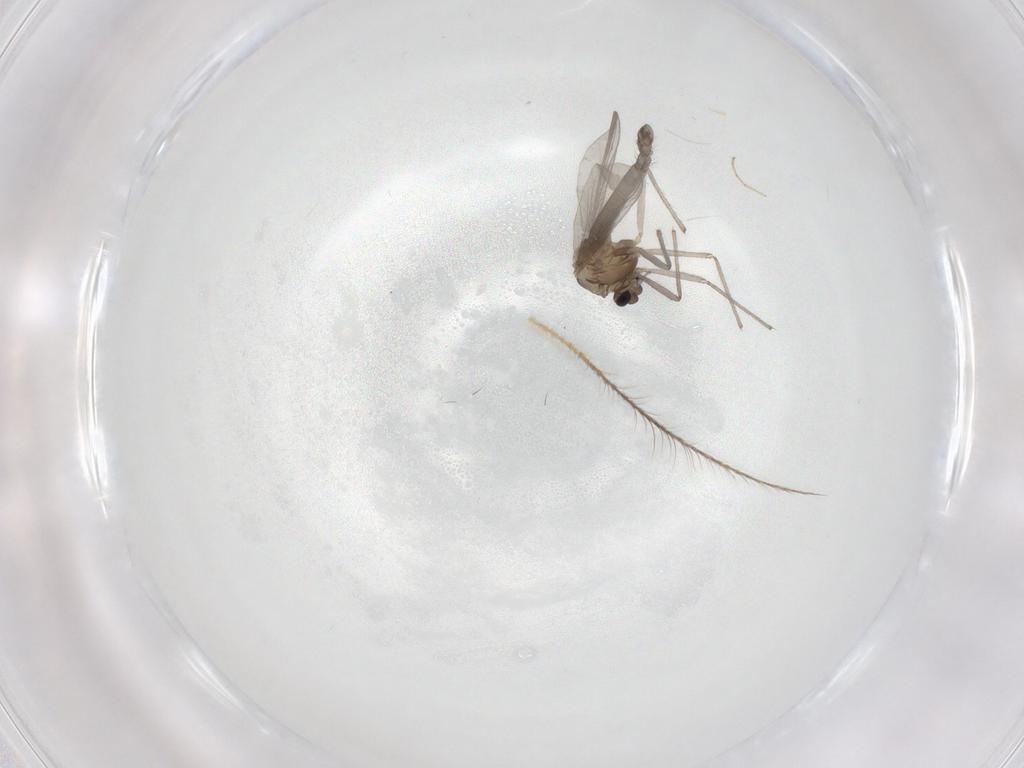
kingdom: Animalia
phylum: Arthropoda
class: Insecta
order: Diptera
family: Chironomidae
